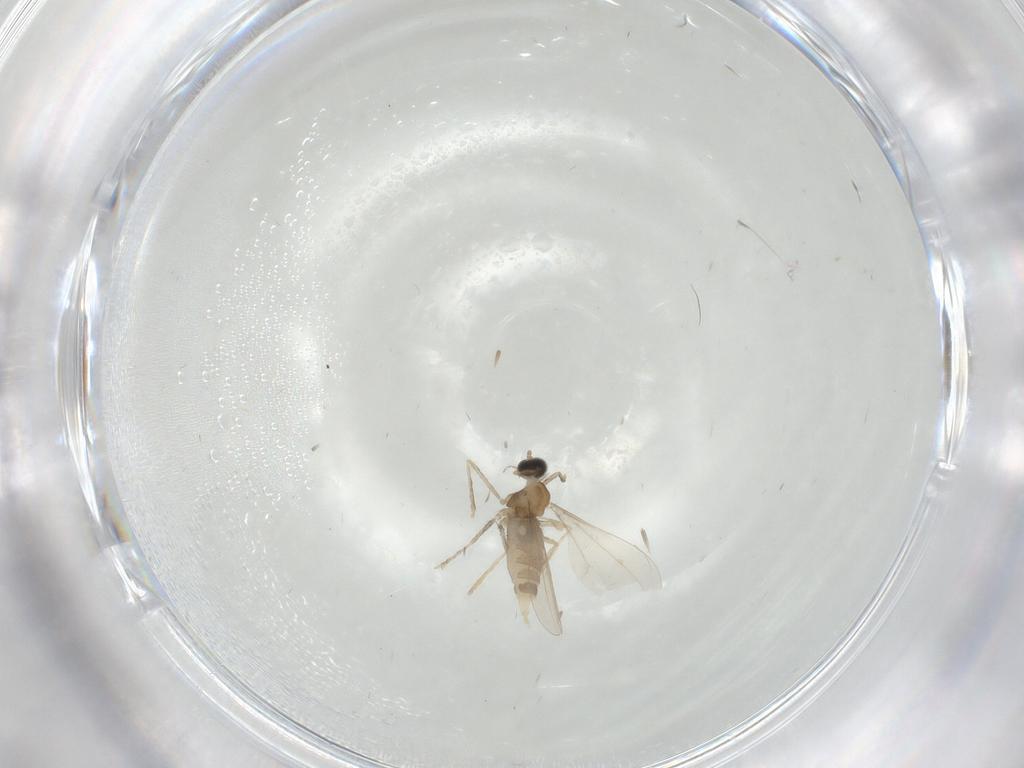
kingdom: Animalia
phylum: Arthropoda
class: Insecta
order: Diptera
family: Cecidomyiidae
